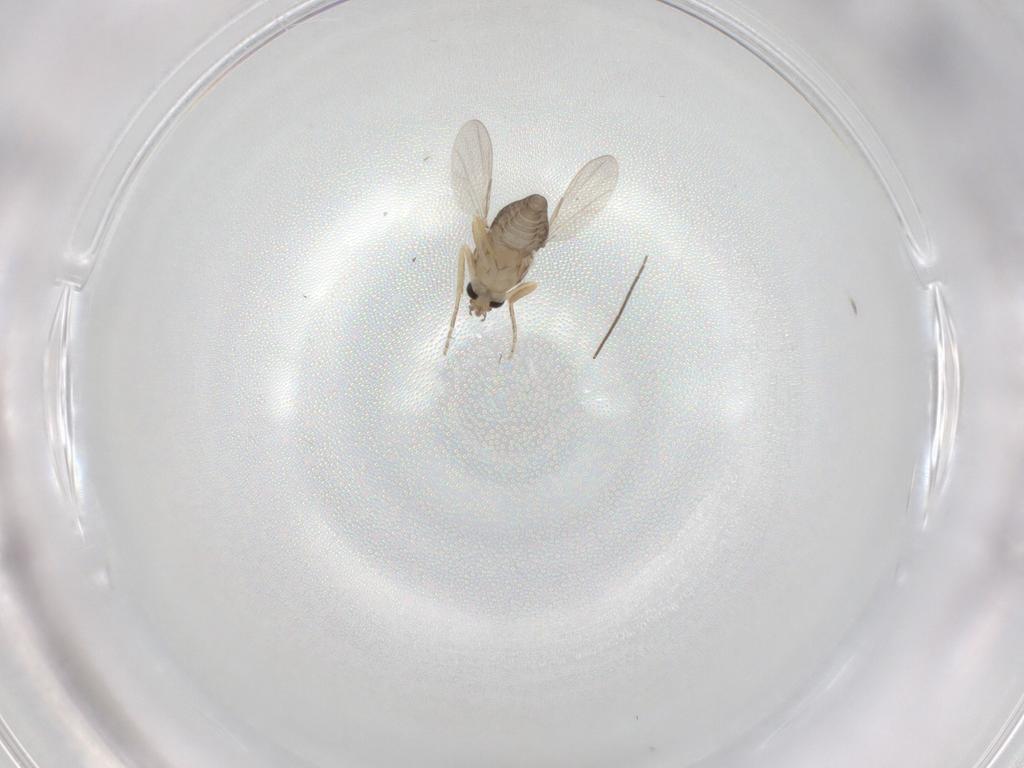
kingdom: Animalia
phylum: Arthropoda
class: Insecta
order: Diptera
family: Ceratopogonidae
